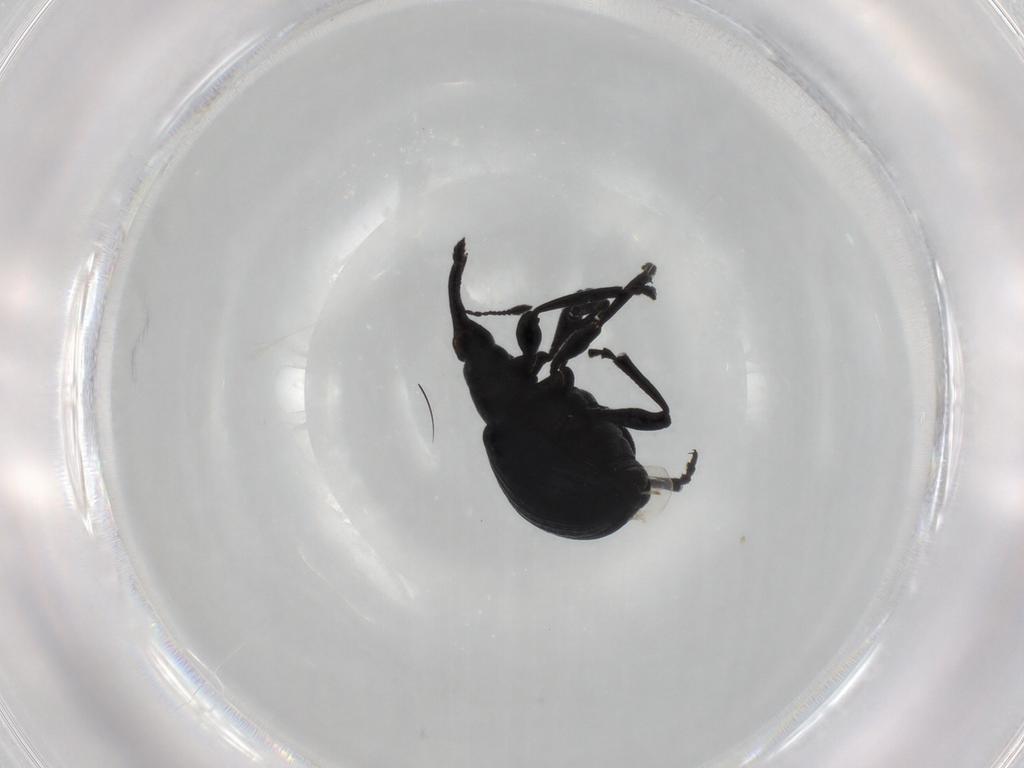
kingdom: Animalia
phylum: Arthropoda
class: Insecta
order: Coleoptera
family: Brentidae
